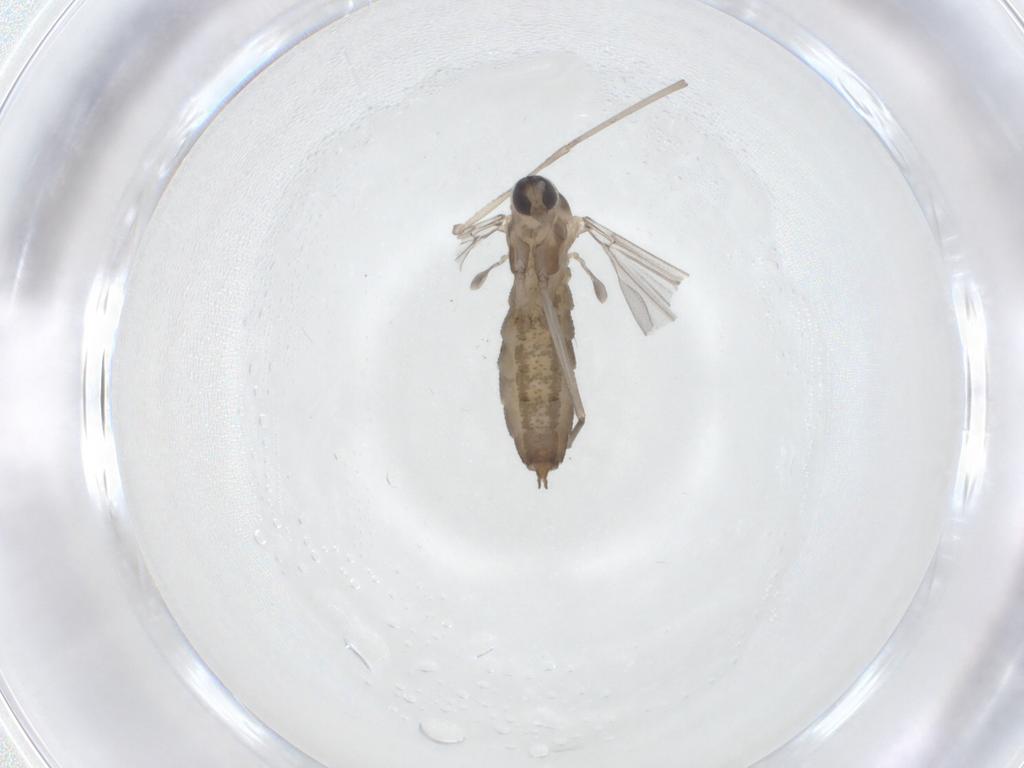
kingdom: Animalia
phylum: Arthropoda
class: Insecta
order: Diptera
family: Cecidomyiidae
